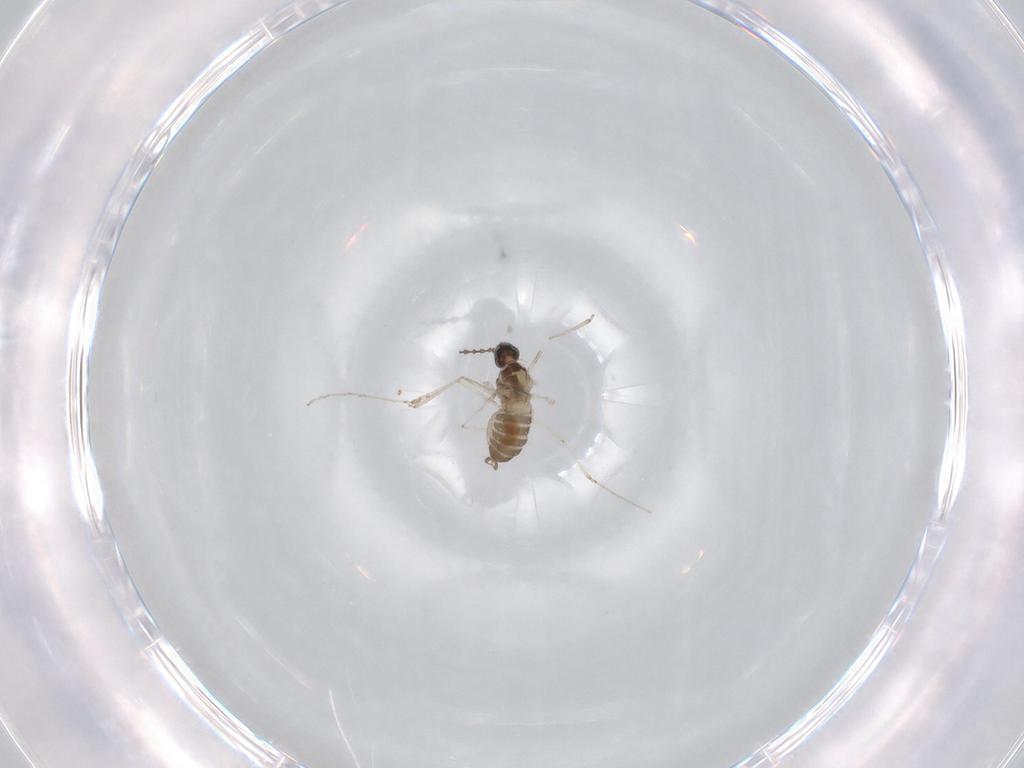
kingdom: Animalia
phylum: Arthropoda
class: Insecta
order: Diptera
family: Cecidomyiidae
